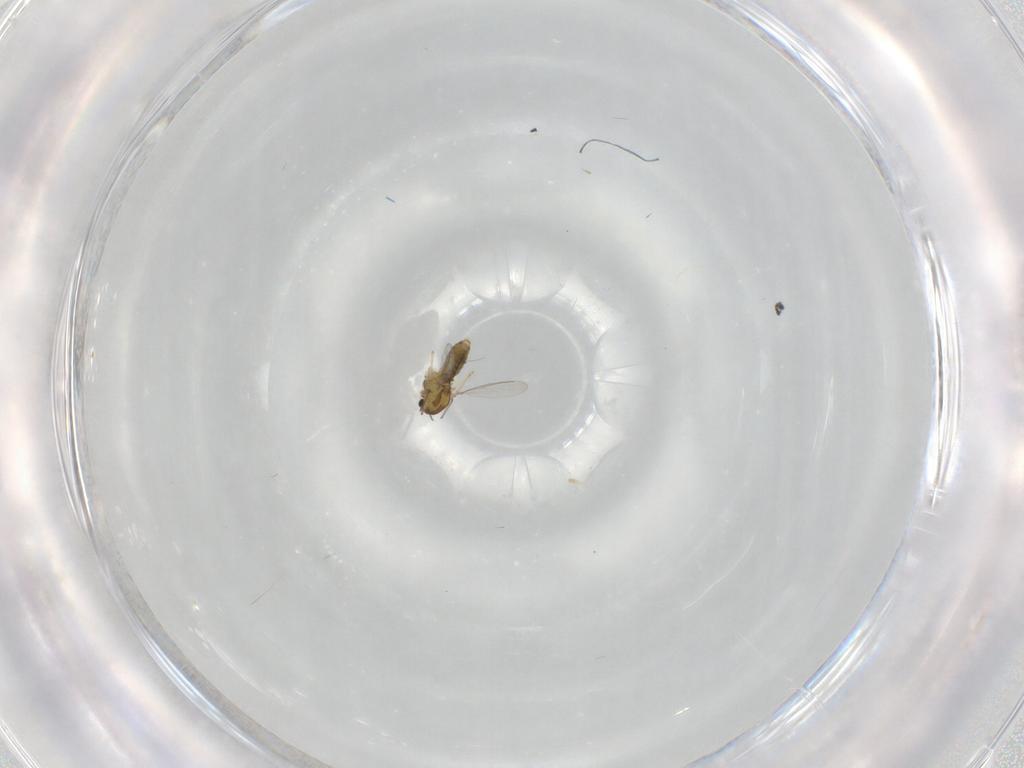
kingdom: Animalia
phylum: Arthropoda
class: Insecta
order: Diptera
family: Chironomidae
